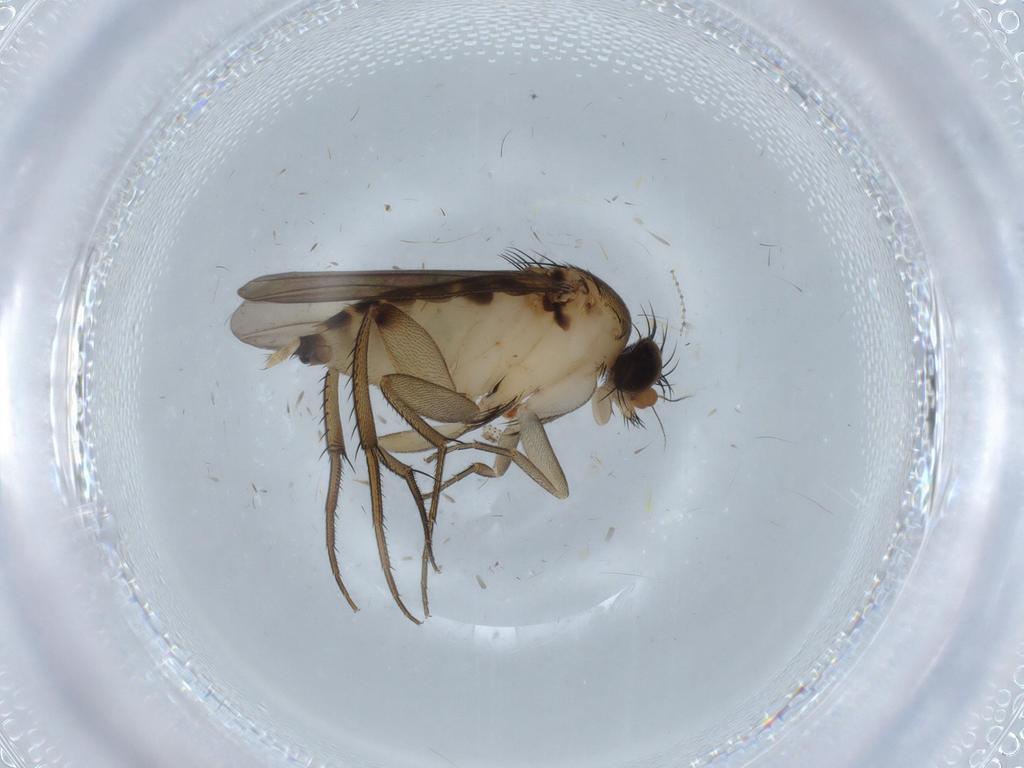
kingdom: Animalia
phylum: Arthropoda
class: Insecta
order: Diptera
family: Phoridae
